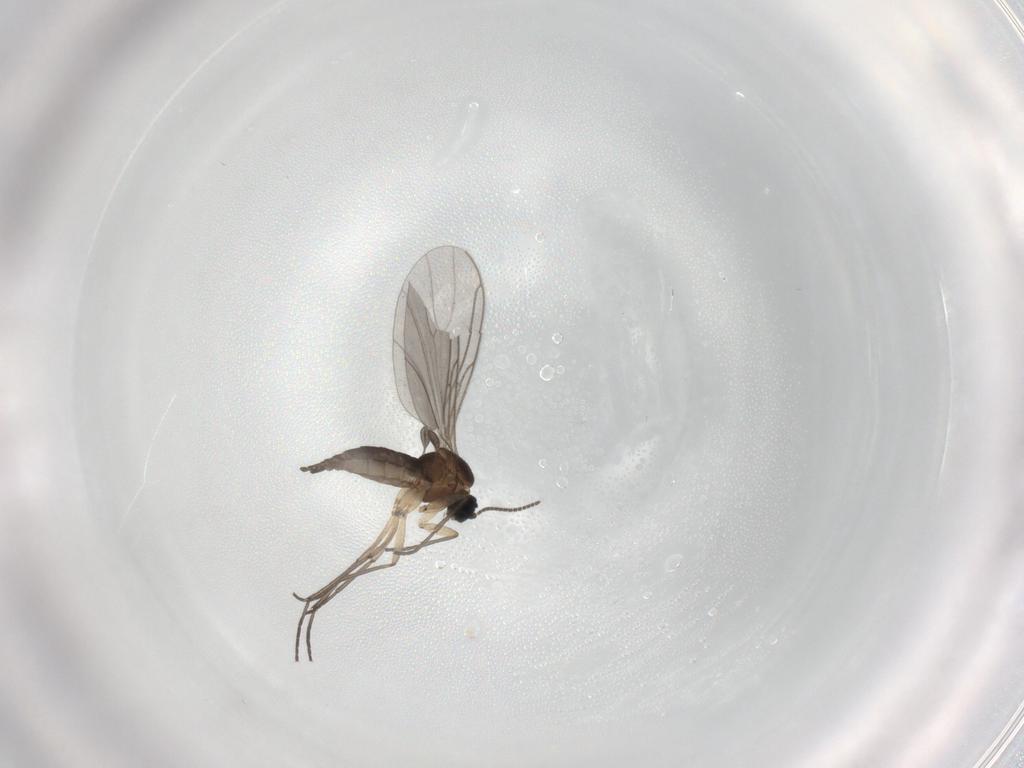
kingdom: Animalia
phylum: Arthropoda
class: Insecta
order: Diptera
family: Sciaridae
